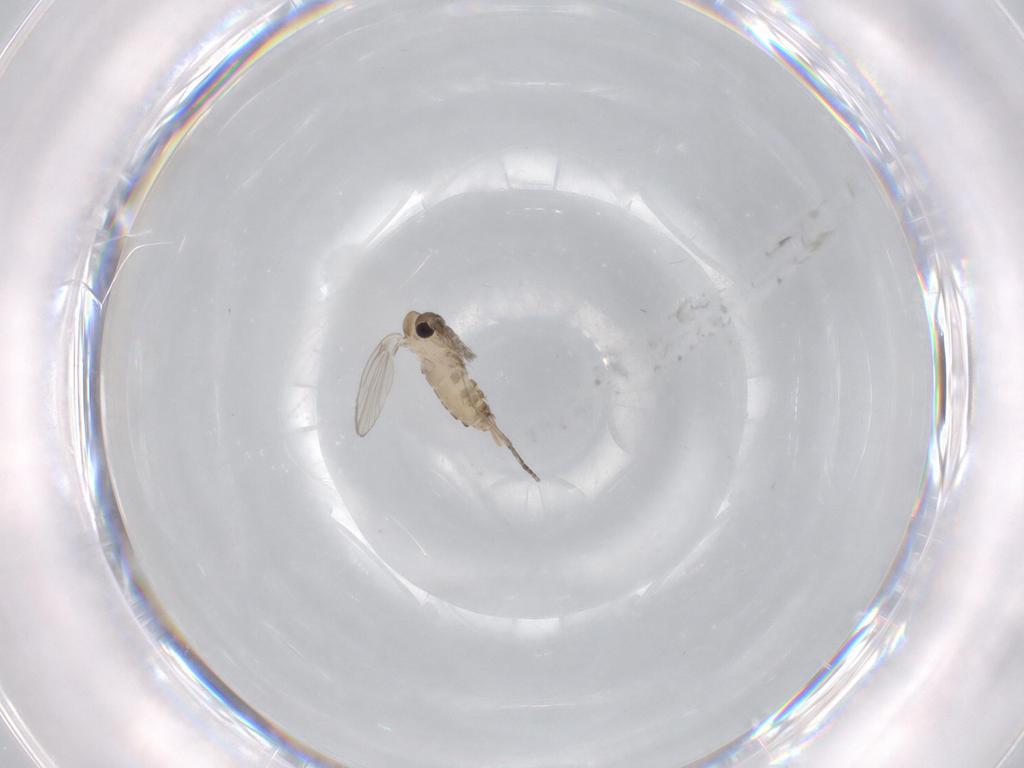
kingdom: Animalia
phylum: Arthropoda
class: Insecta
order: Diptera
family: Psychodidae
